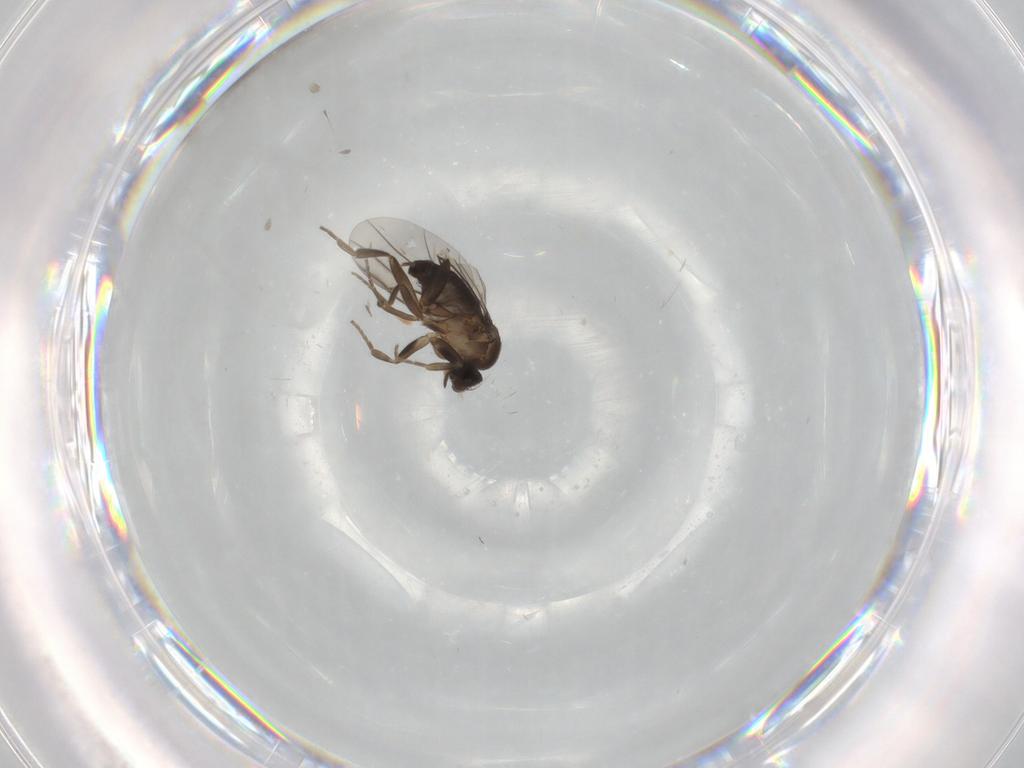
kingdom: Animalia
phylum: Arthropoda
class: Insecta
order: Diptera
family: Phoridae
